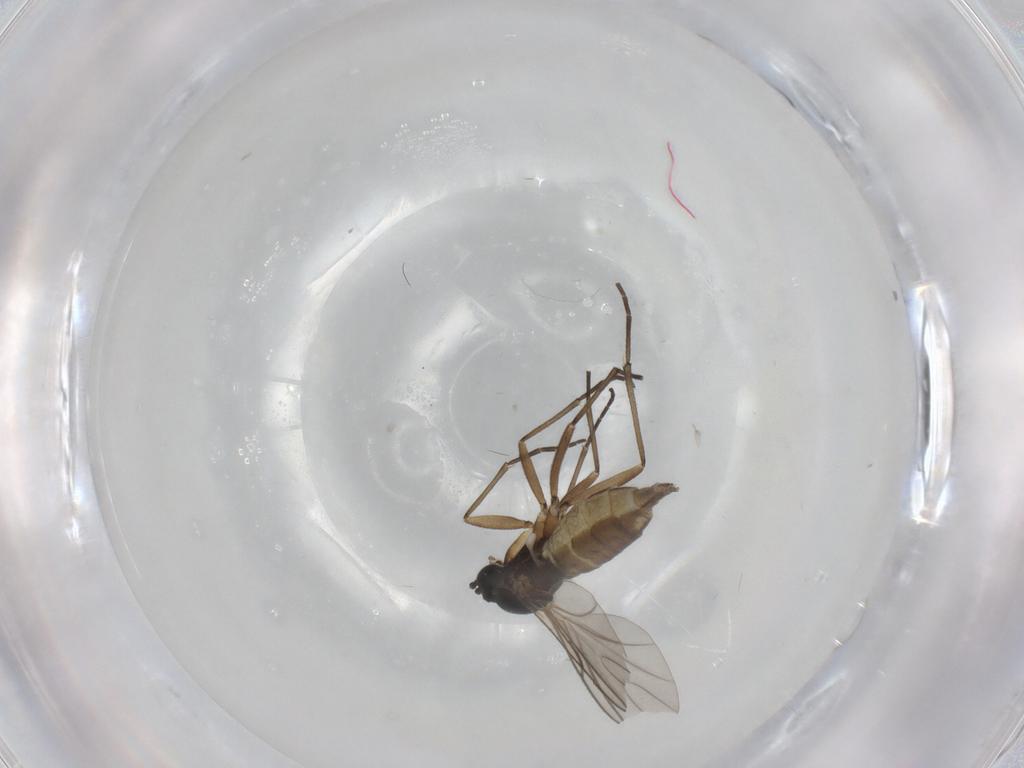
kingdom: Animalia
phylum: Arthropoda
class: Insecta
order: Diptera
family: Sciaridae
